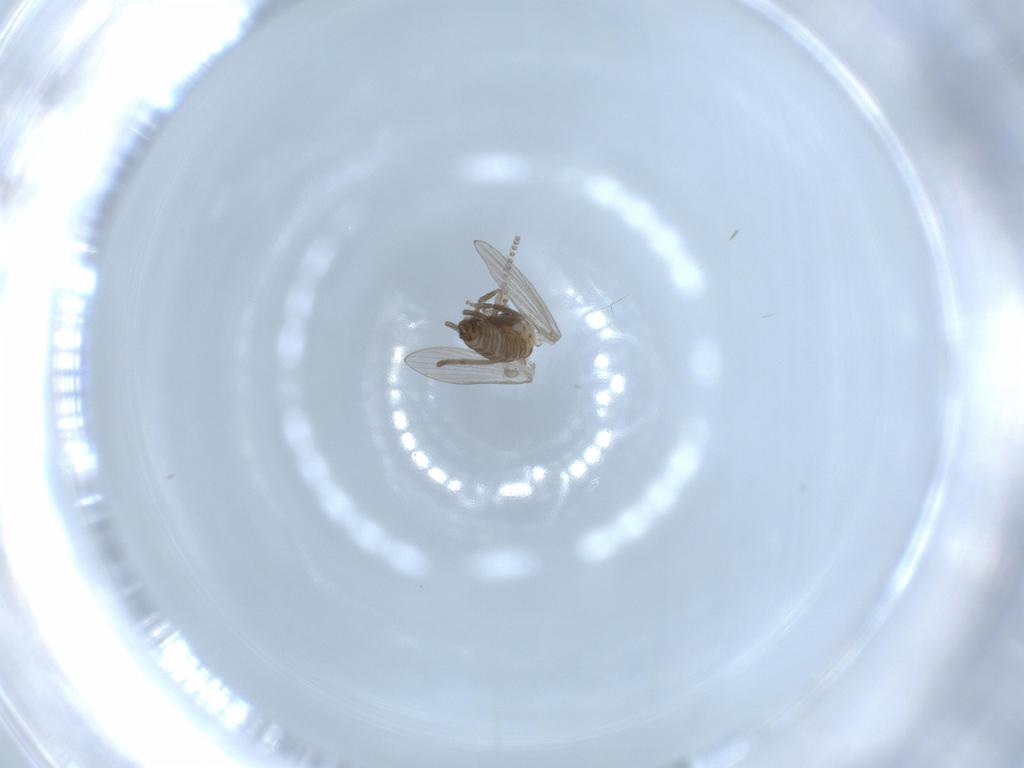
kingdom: Animalia
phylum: Arthropoda
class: Insecta
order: Diptera
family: Psychodidae
